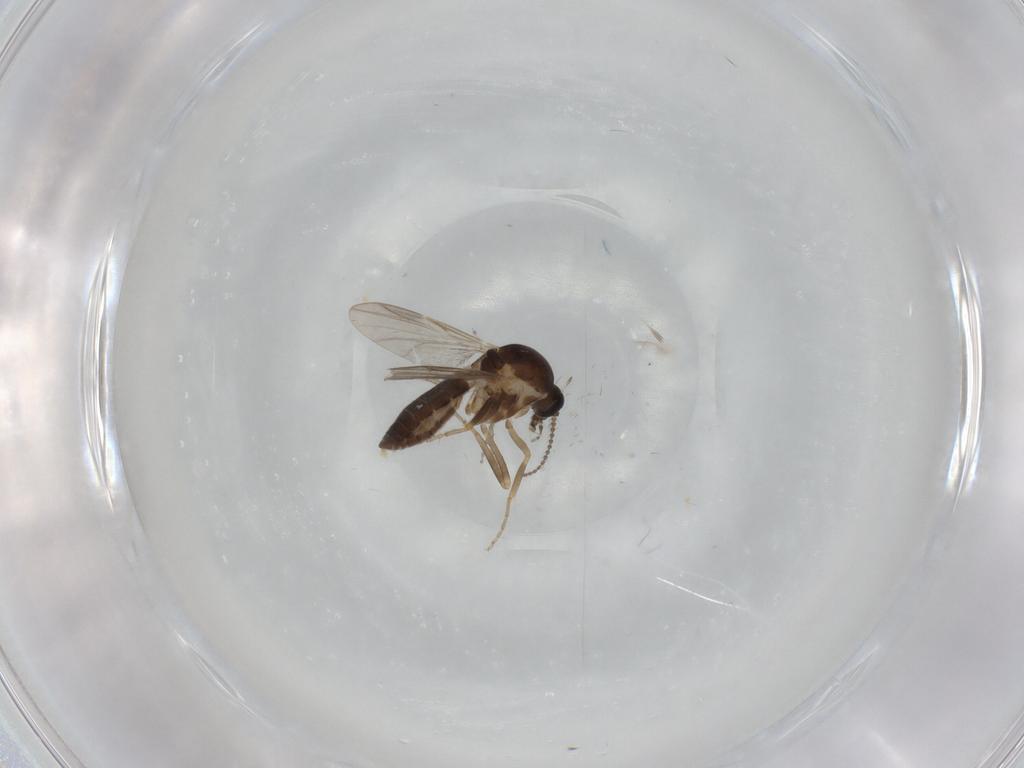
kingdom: Animalia
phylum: Arthropoda
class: Insecta
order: Diptera
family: Ceratopogonidae
